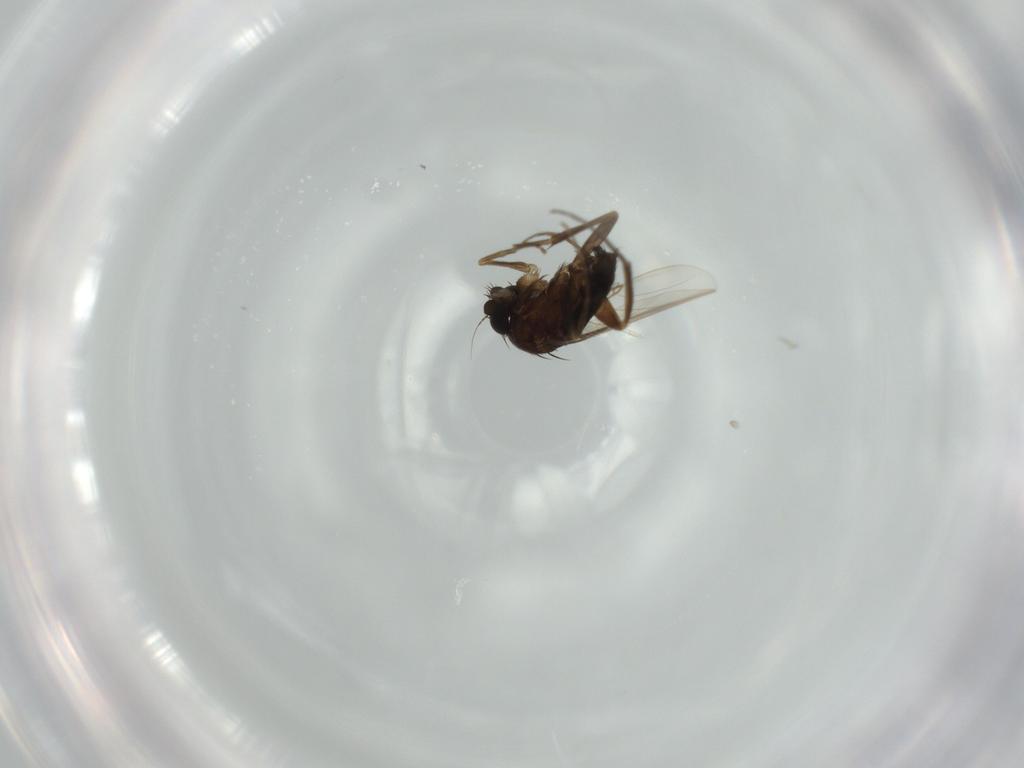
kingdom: Animalia
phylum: Arthropoda
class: Insecta
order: Diptera
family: Phoridae
